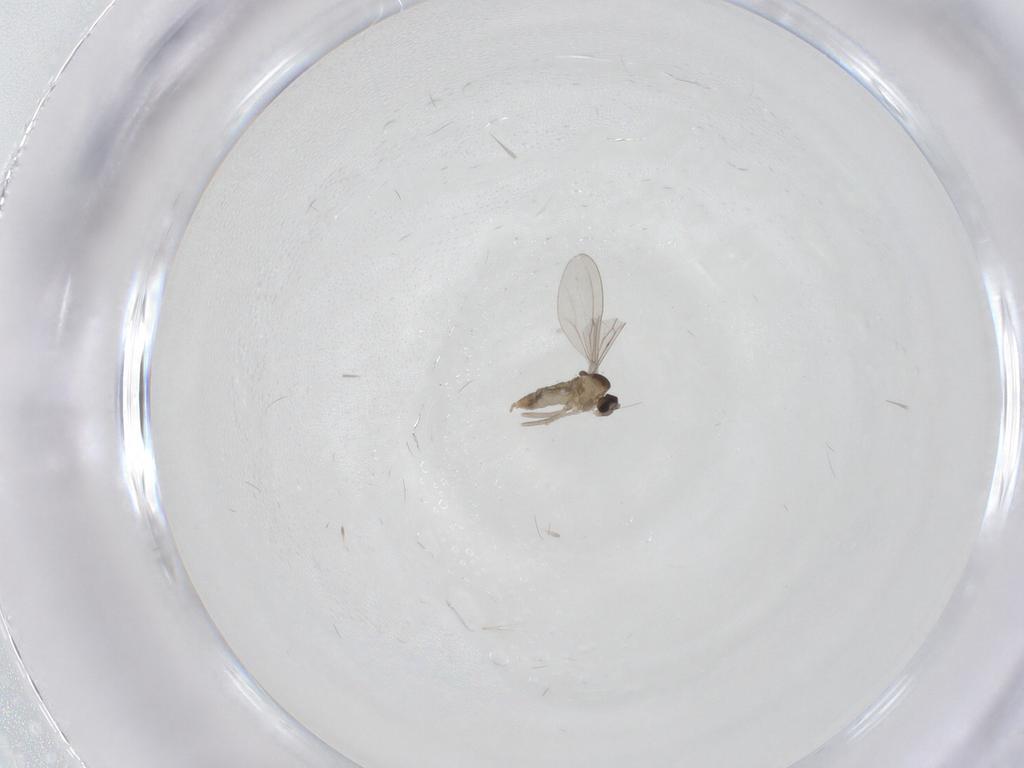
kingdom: Animalia
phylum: Arthropoda
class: Insecta
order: Diptera
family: Cecidomyiidae
